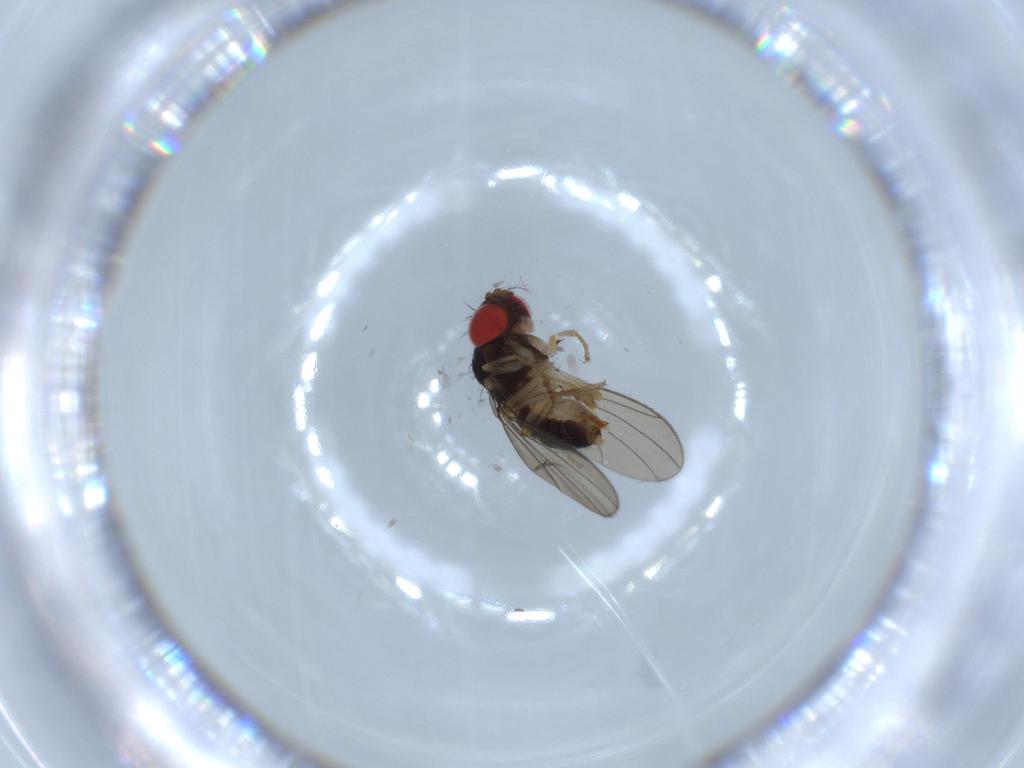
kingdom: Animalia
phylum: Arthropoda
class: Insecta
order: Diptera
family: Drosophilidae
